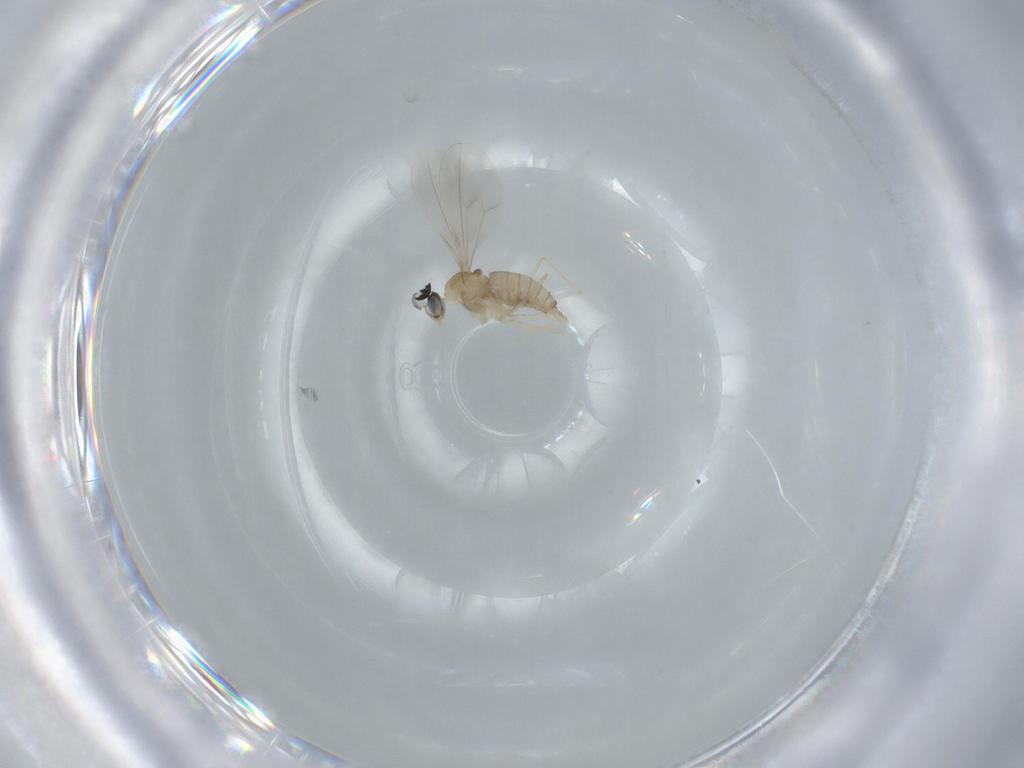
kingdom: Animalia
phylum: Arthropoda
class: Insecta
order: Diptera
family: Cecidomyiidae
